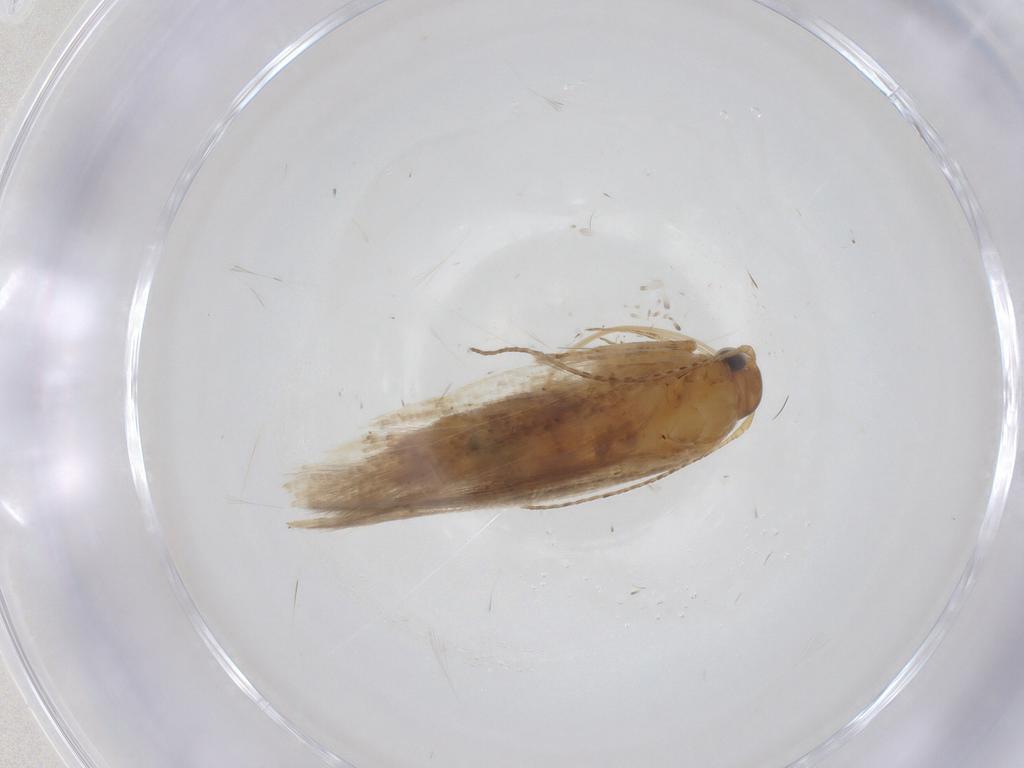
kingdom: Animalia
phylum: Arthropoda
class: Insecta
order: Lepidoptera
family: Gelechiidae
